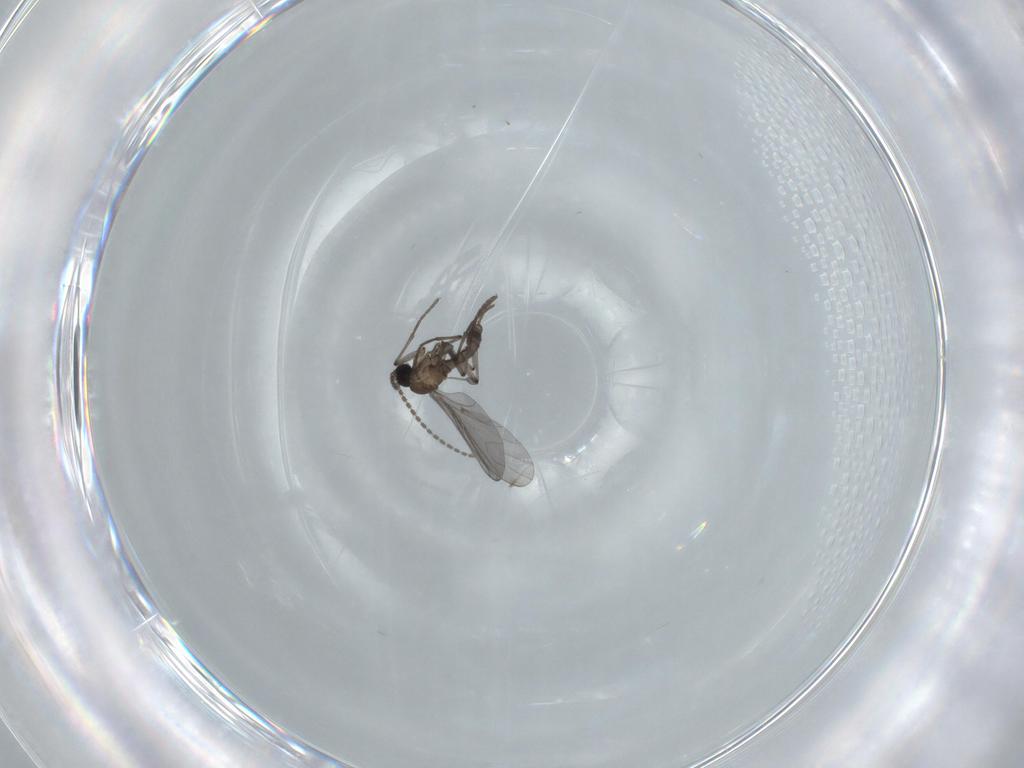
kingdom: Animalia
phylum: Arthropoda
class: Insecta
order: Diptera
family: Sciaridae
